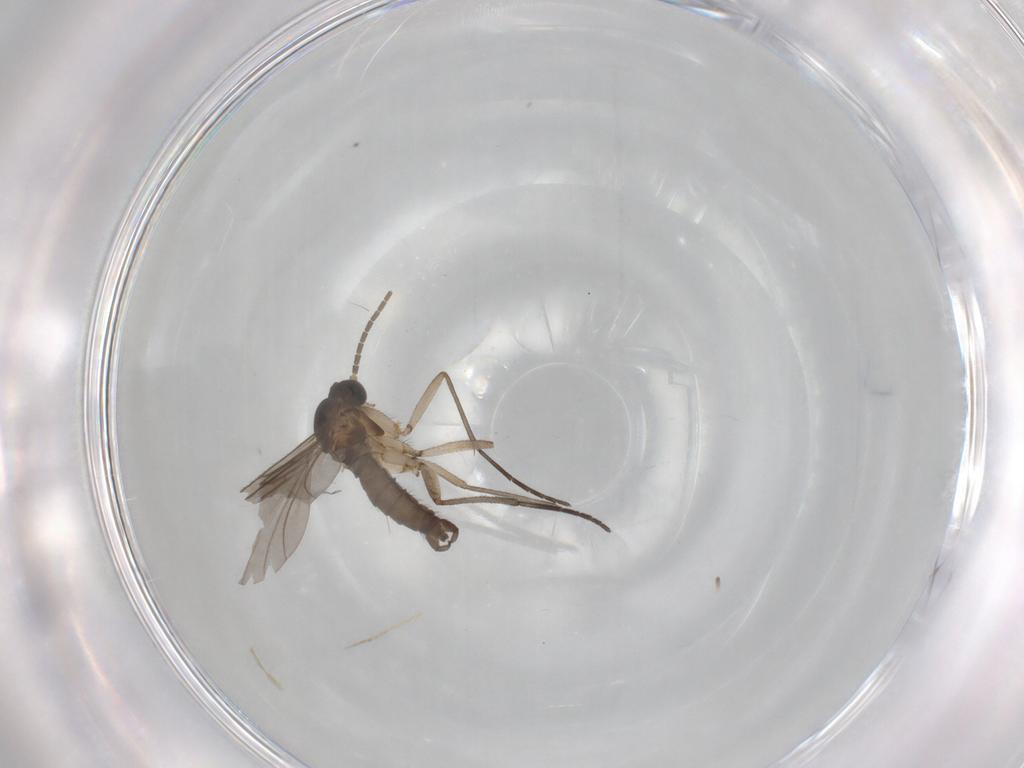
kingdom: Animalia
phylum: Arthropoda
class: Insecta
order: Diptera
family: Sciaridae
